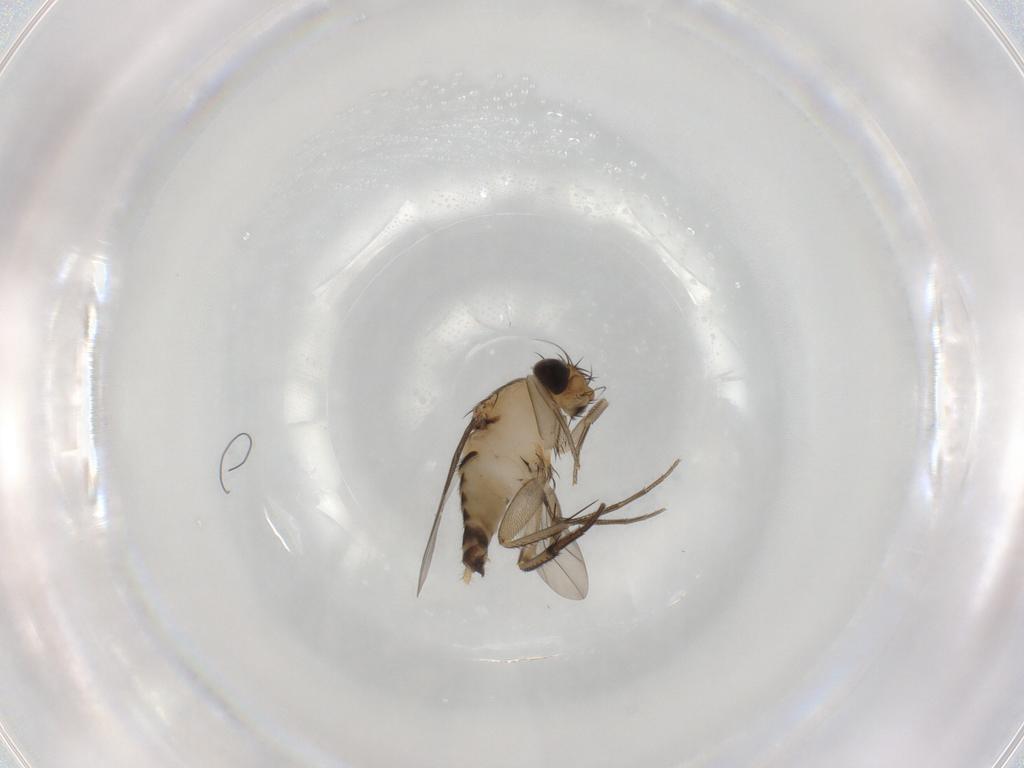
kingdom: Animalia
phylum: Arthropoda
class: Insecta
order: Diptera
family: Phoridae
